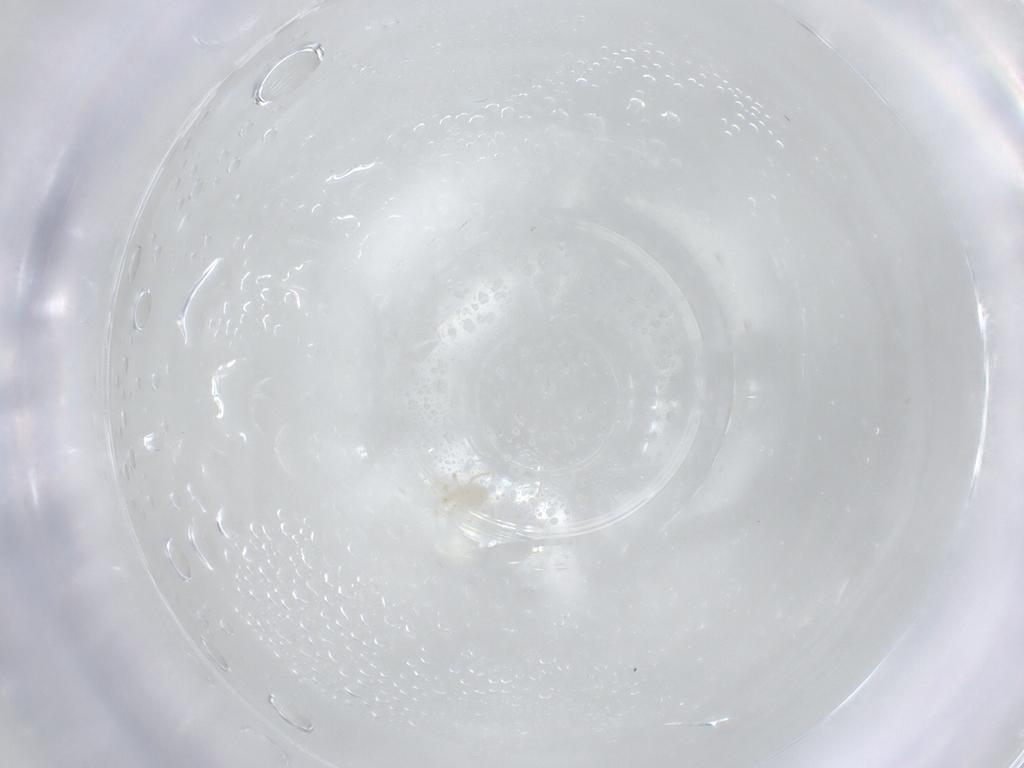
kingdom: Animalia
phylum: Arthropoda
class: Arachnida
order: Mesostigmata
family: Phytoseiidae
